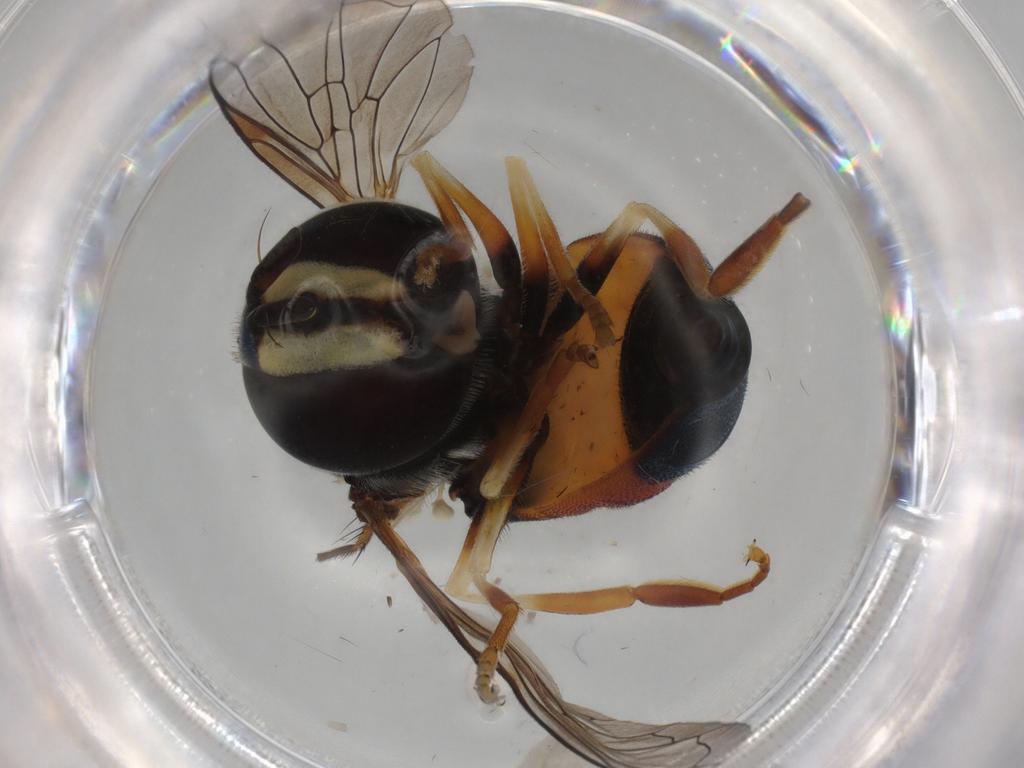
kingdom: Animalia
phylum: Arthropoda
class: Insecta
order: Diptera
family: Syrphidae
